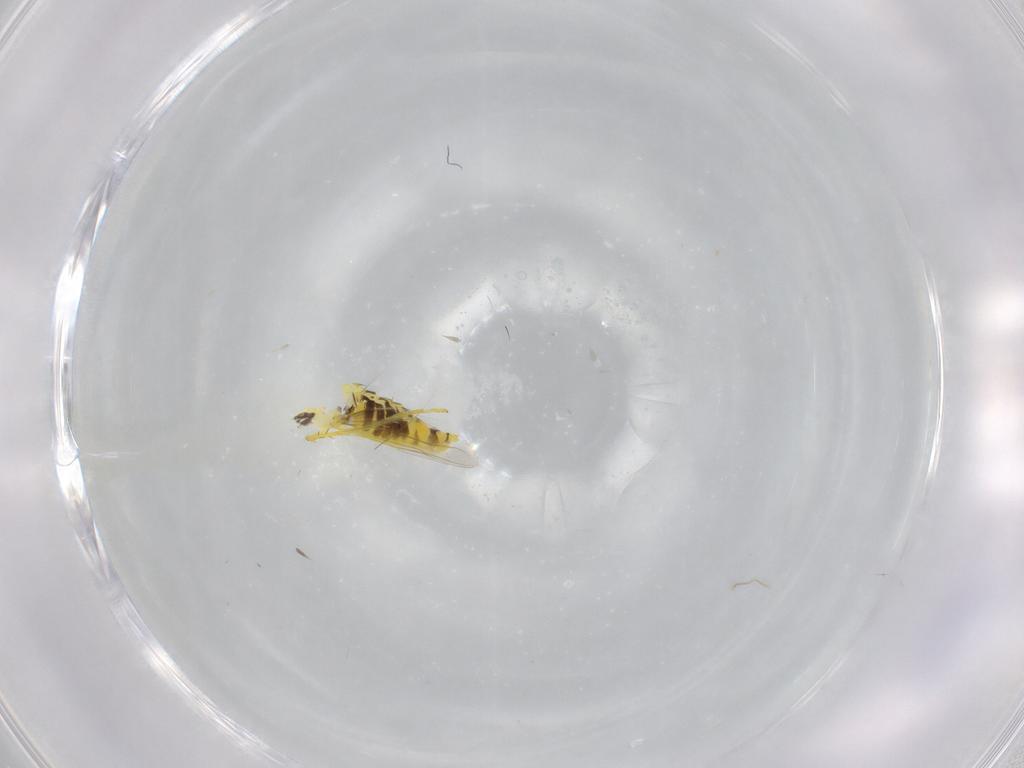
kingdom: Animalia
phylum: Arthropoda
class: Insecta
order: Hemiptera
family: Cicadellidae
